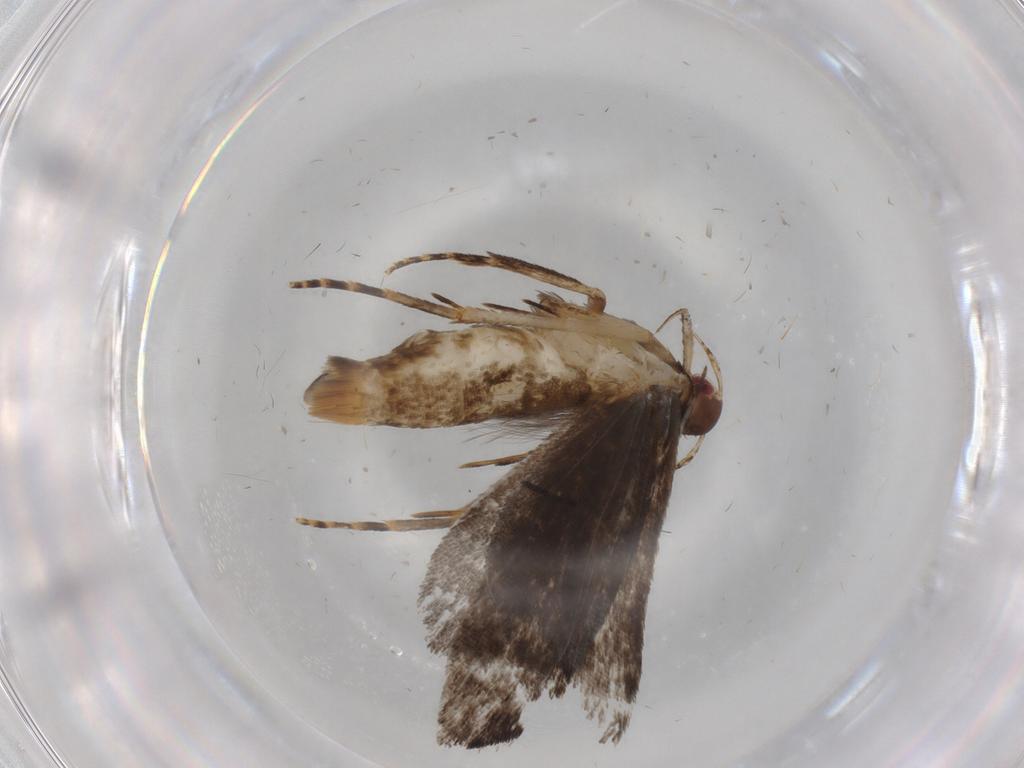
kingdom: Animalia
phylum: Arthropoda
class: Insecta
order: Lepidoptera
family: Gelechiidae
